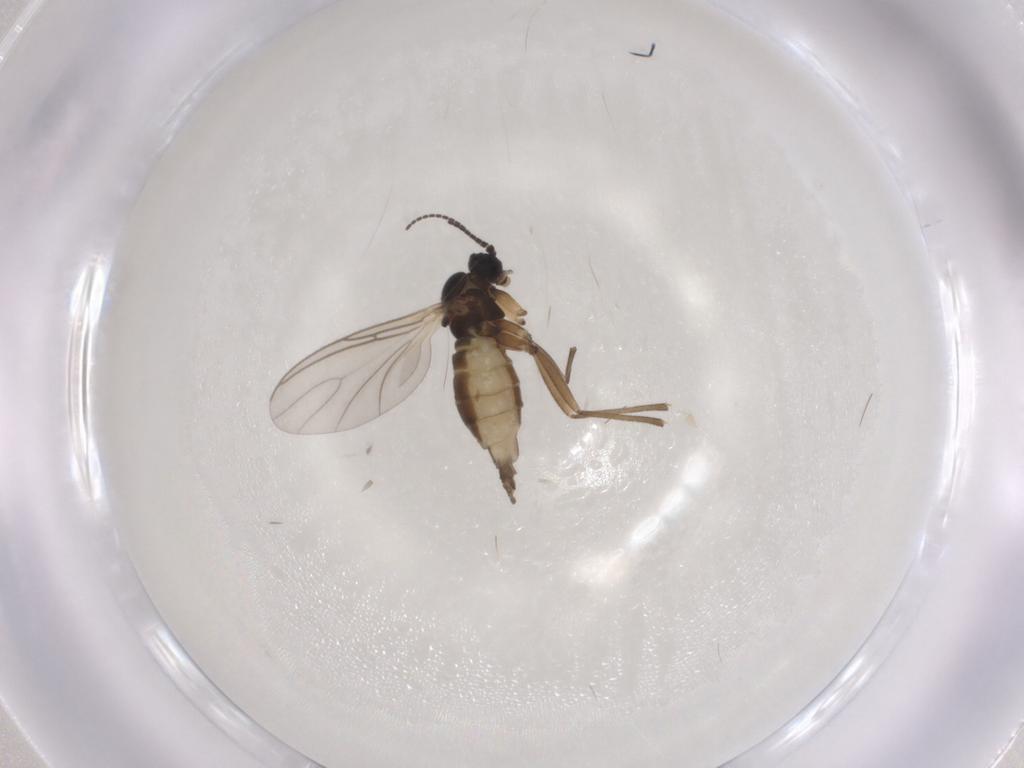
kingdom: Animalia
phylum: Arthropoda
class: Insecta
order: Diptera
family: Sciaridae
